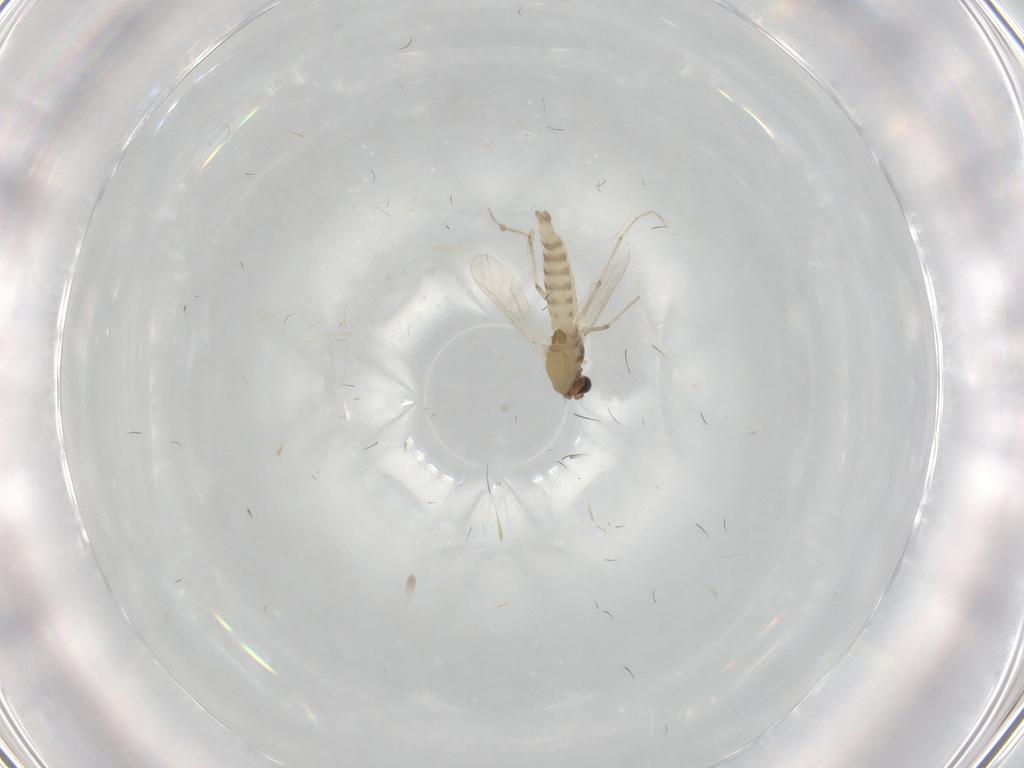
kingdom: Animalia
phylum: Arthropoda
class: Insecta
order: Diptera
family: Chironomidae
